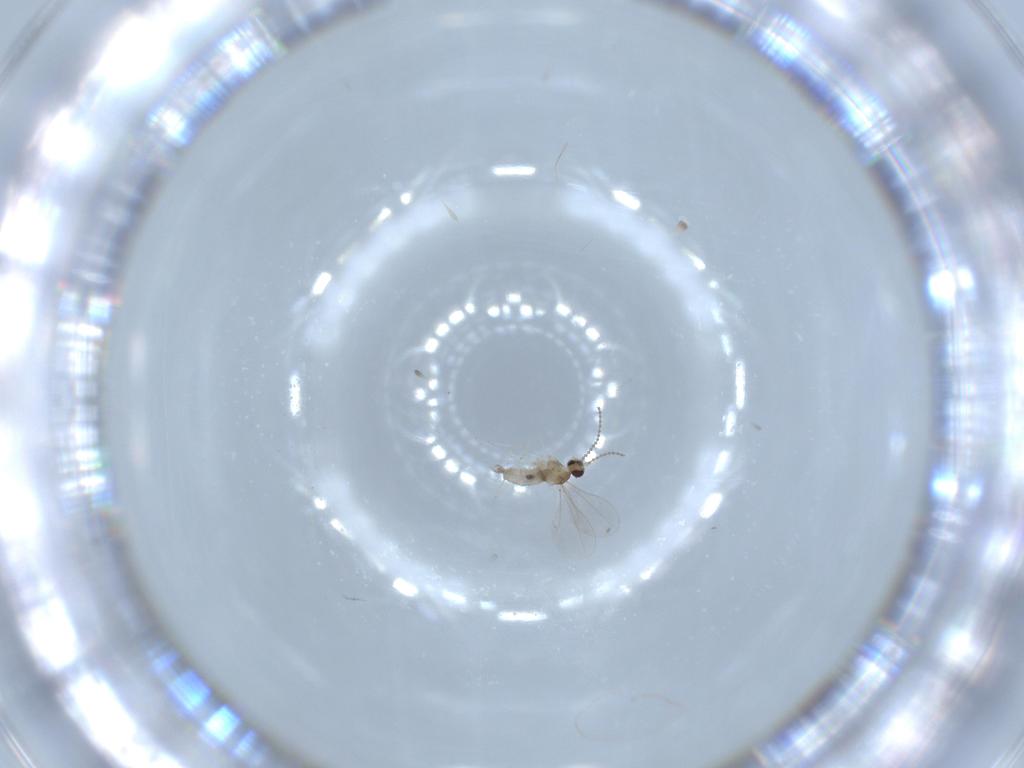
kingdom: Animalia
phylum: Arthropoda
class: Insecta
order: Diptera
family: Cecidomyiidae
